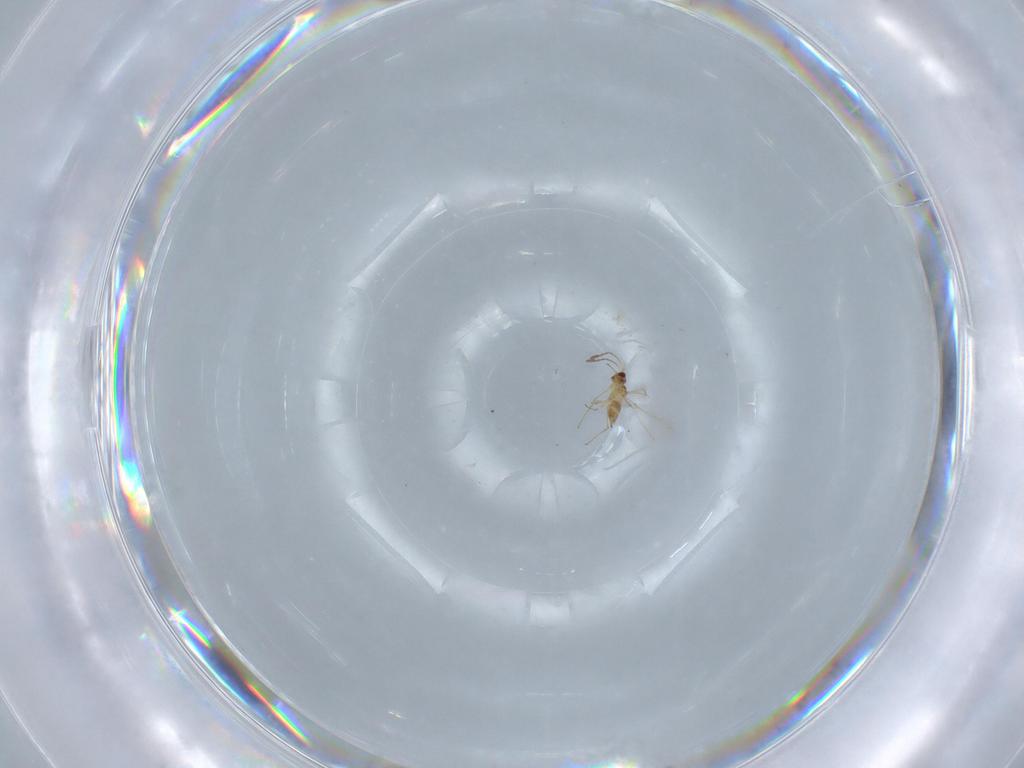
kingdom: Animalia
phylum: Arthropoda
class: Insecta
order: Hymenoptera
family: Mymaridae
